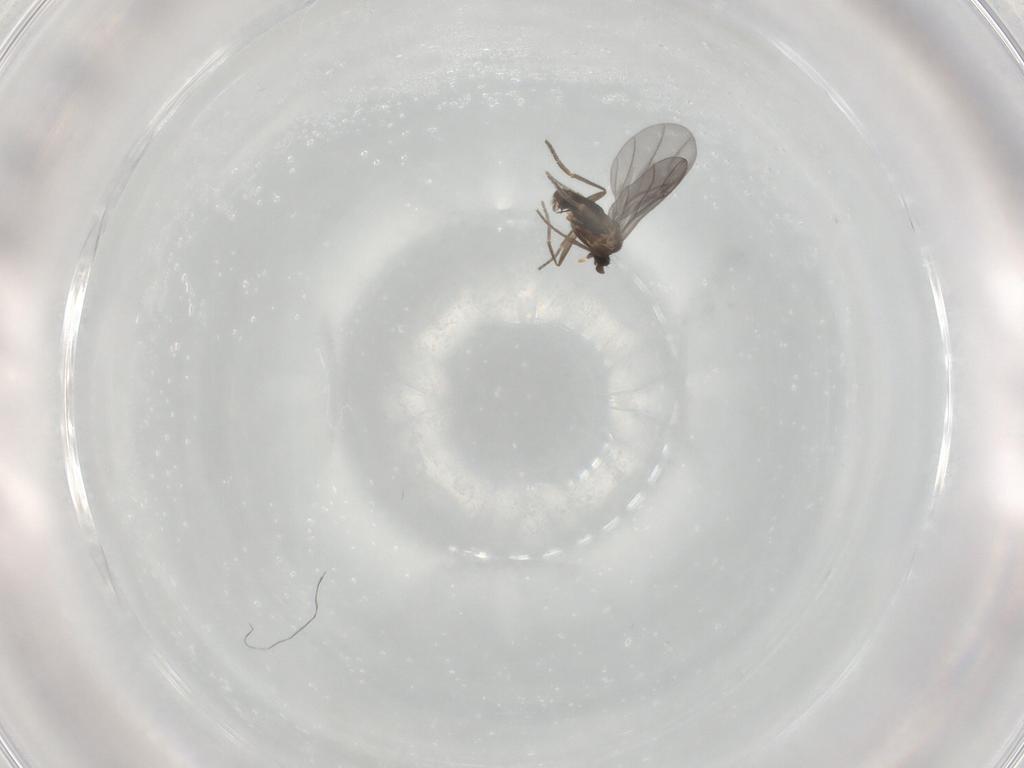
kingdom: Animalia
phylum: Arthropoda
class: Insecta
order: Diptera
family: Phoridae
